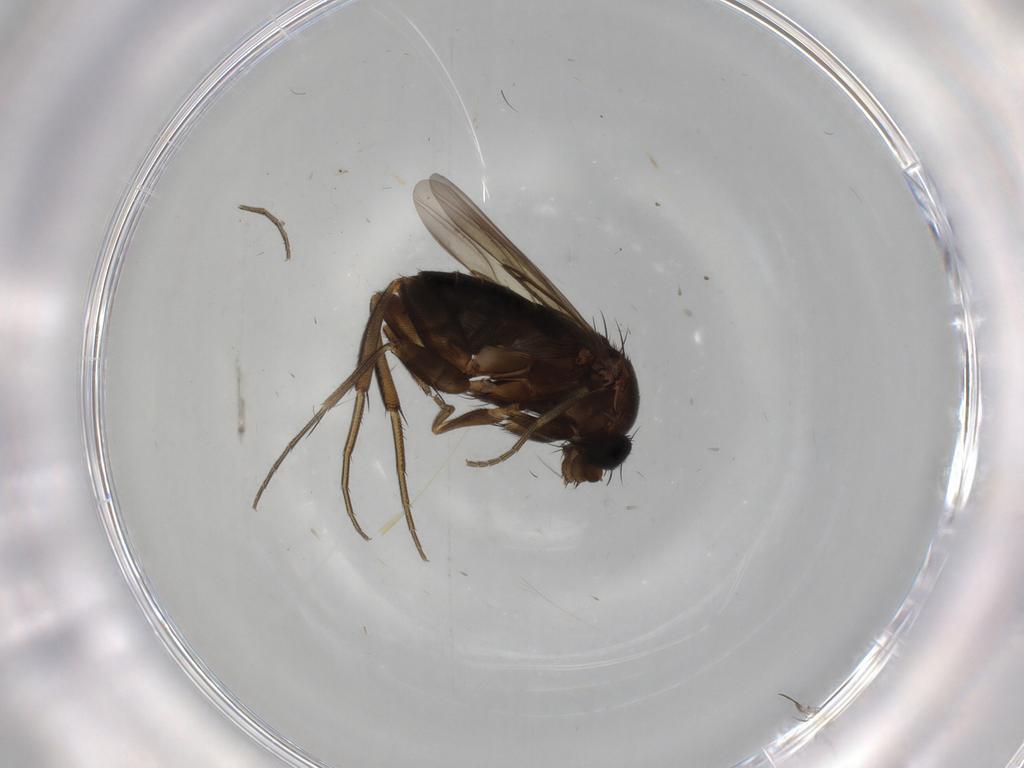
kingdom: Animalia
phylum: Arthropoda
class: Insecta
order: Diptera
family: Phoridae
